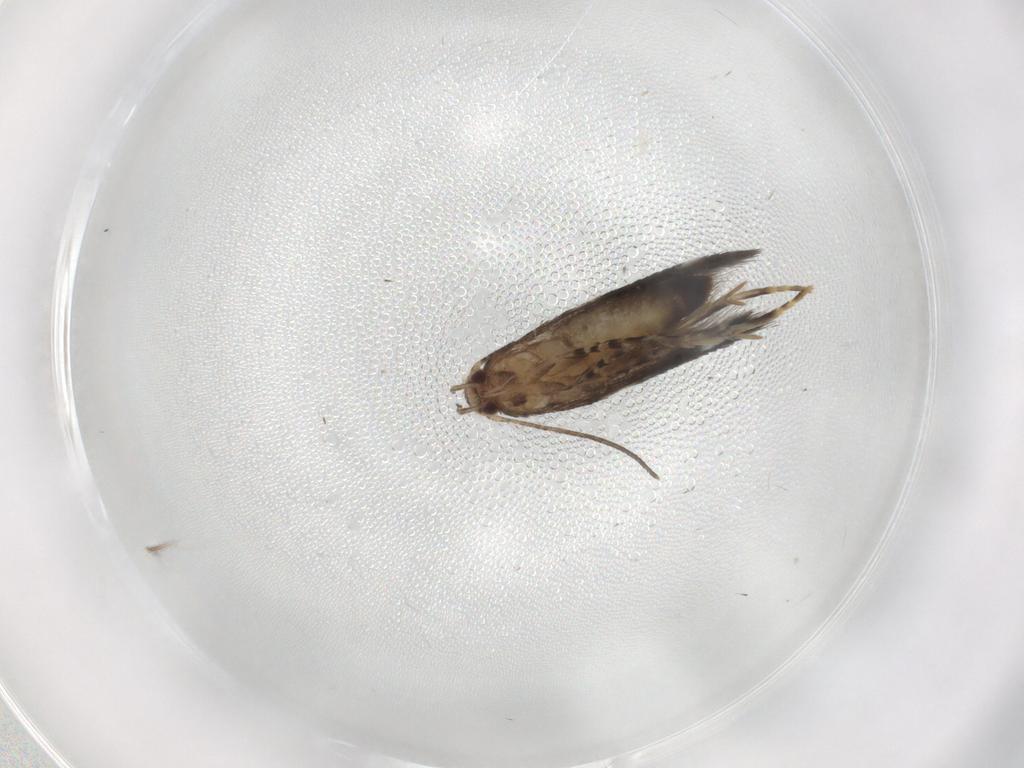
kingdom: Animalia
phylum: Arthropoda
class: Insecta
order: Lepidoptera
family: Elachistidae
